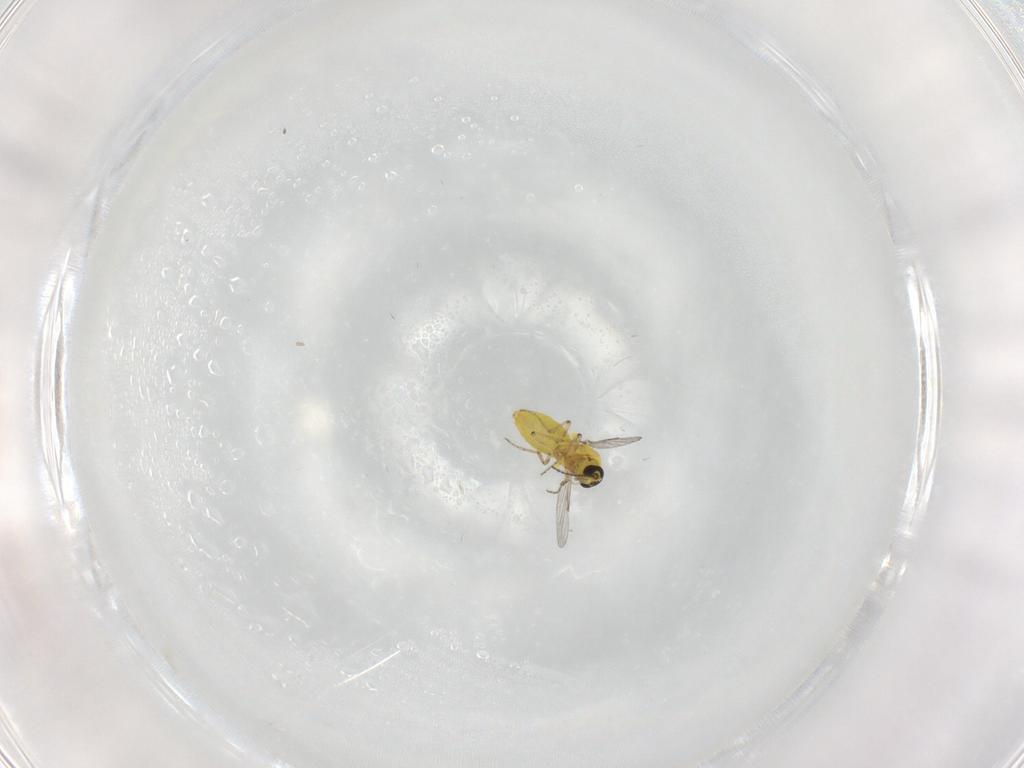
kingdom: Animalia
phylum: Arthropoda
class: Insecta
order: Diptera
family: Ceratopogonidae
